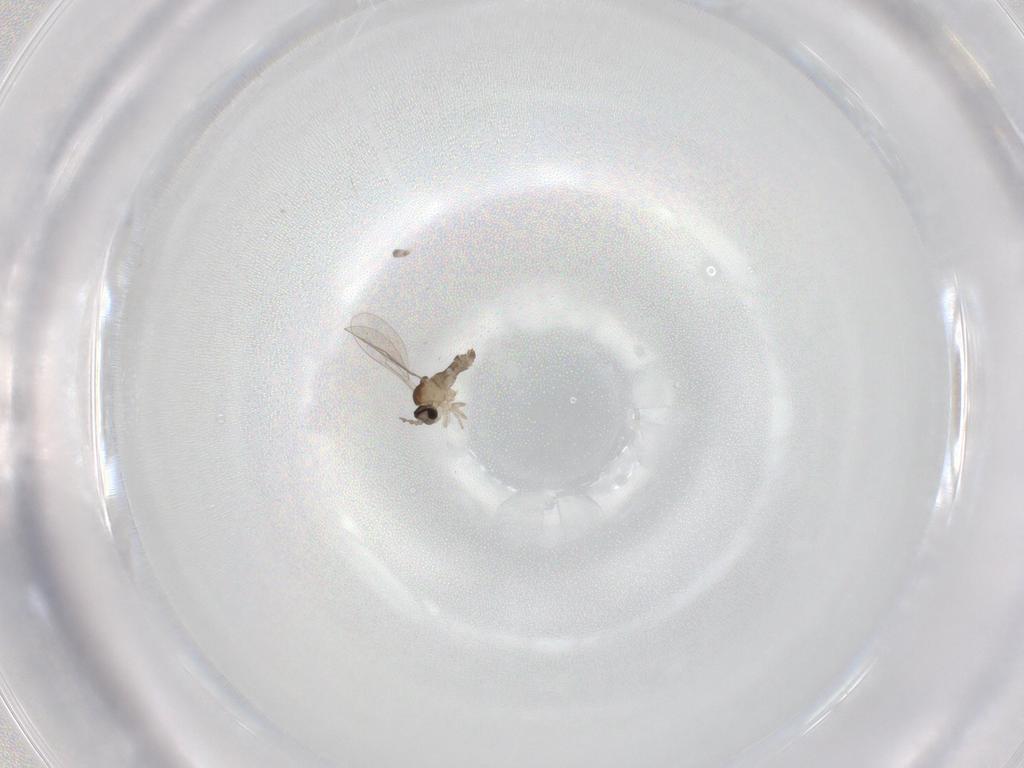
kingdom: Animalia
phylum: Arthropoda
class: Insecta
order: Diptera
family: Cecidomyiidae
